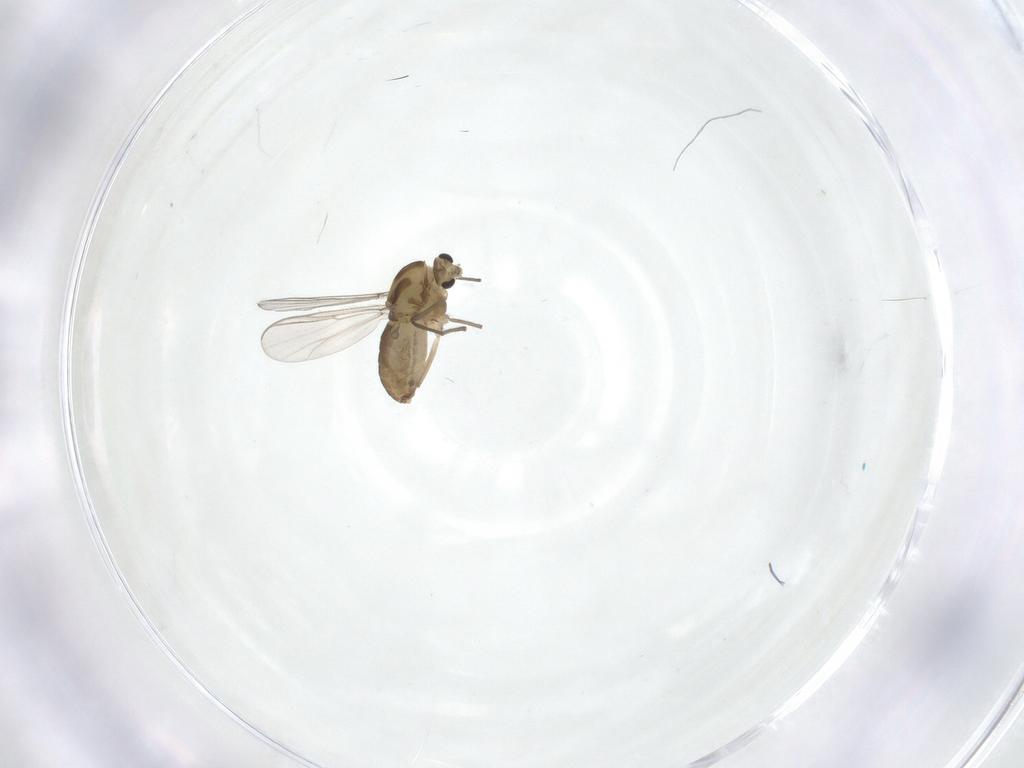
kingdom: Animalia
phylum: Arthropoda
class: Insecta
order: Diptera
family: Chironomidae
